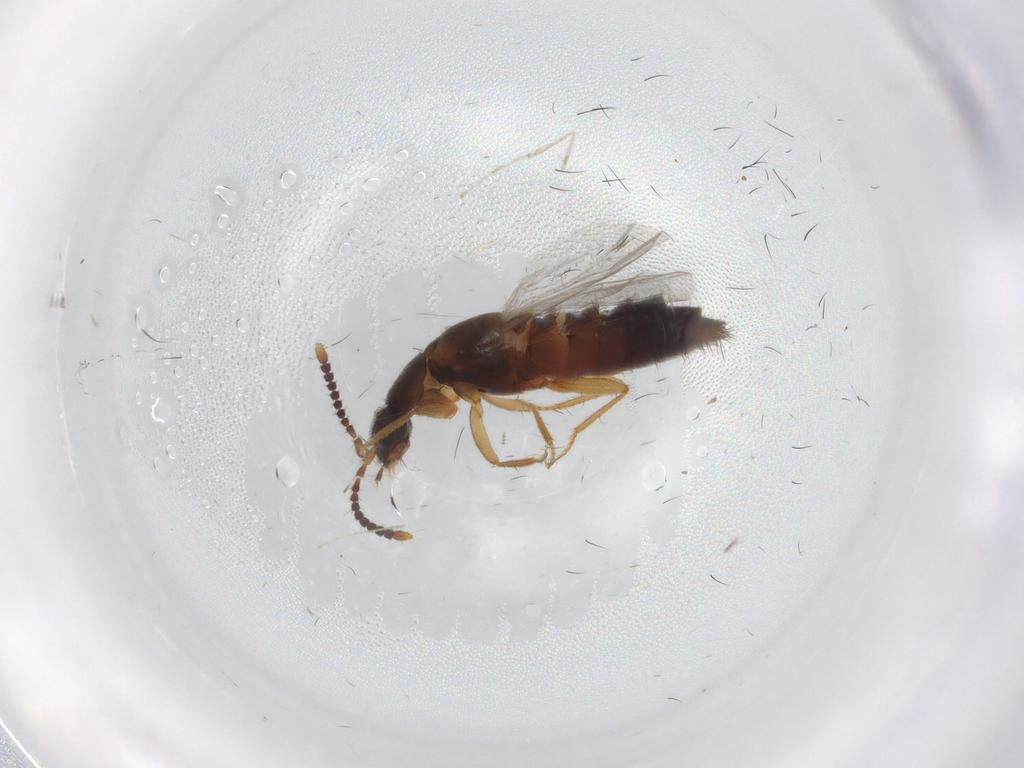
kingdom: Animalia
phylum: Arthropoda
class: Insecta
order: Coleoptera
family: Staphylinidae
